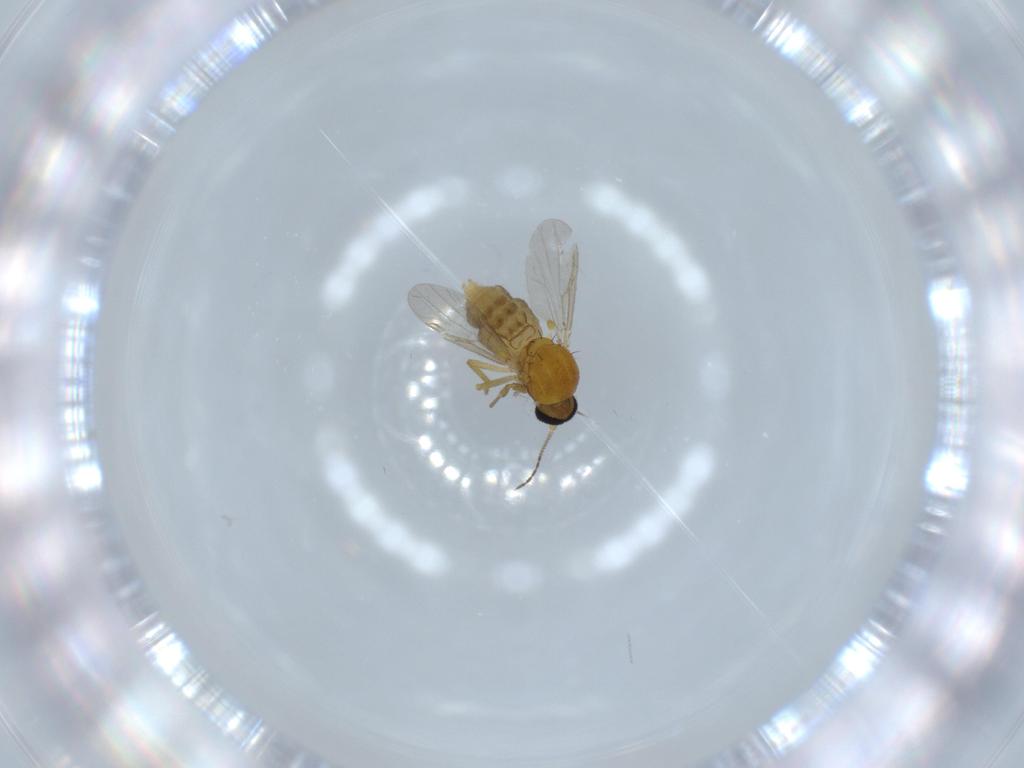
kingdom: Animalia
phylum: Arthropoda
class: Insecta
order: Diptera
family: Ceratopogonidae
